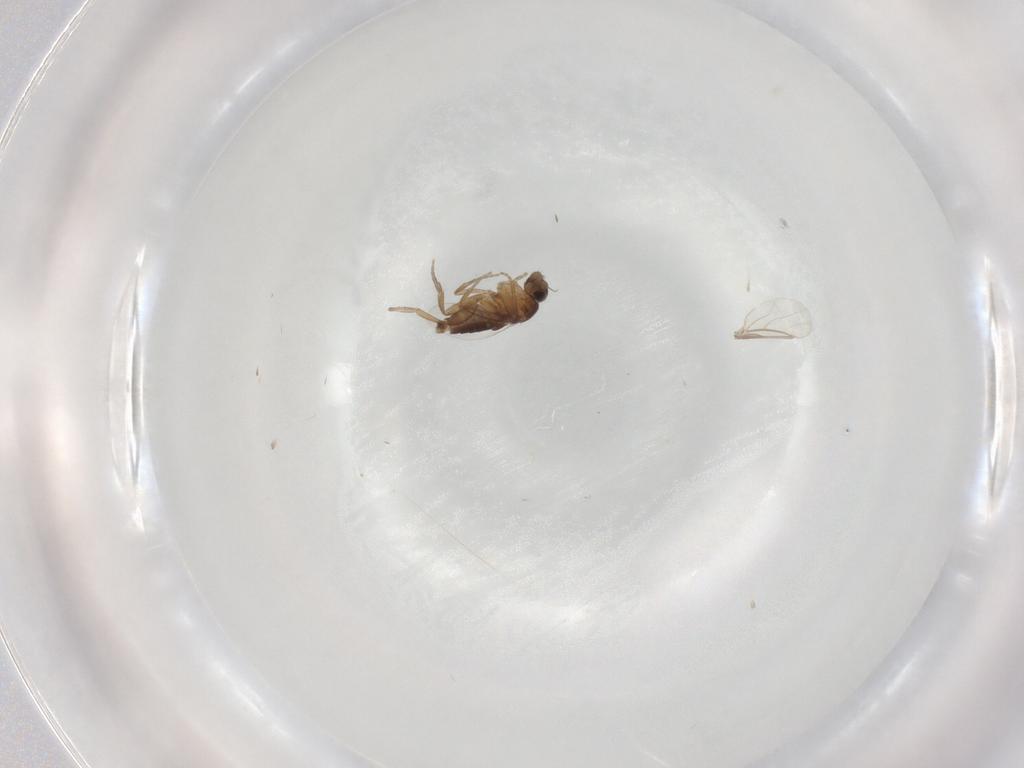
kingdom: Animalia
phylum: Arthropoda
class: Insecta
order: Diptera
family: Phoridae
